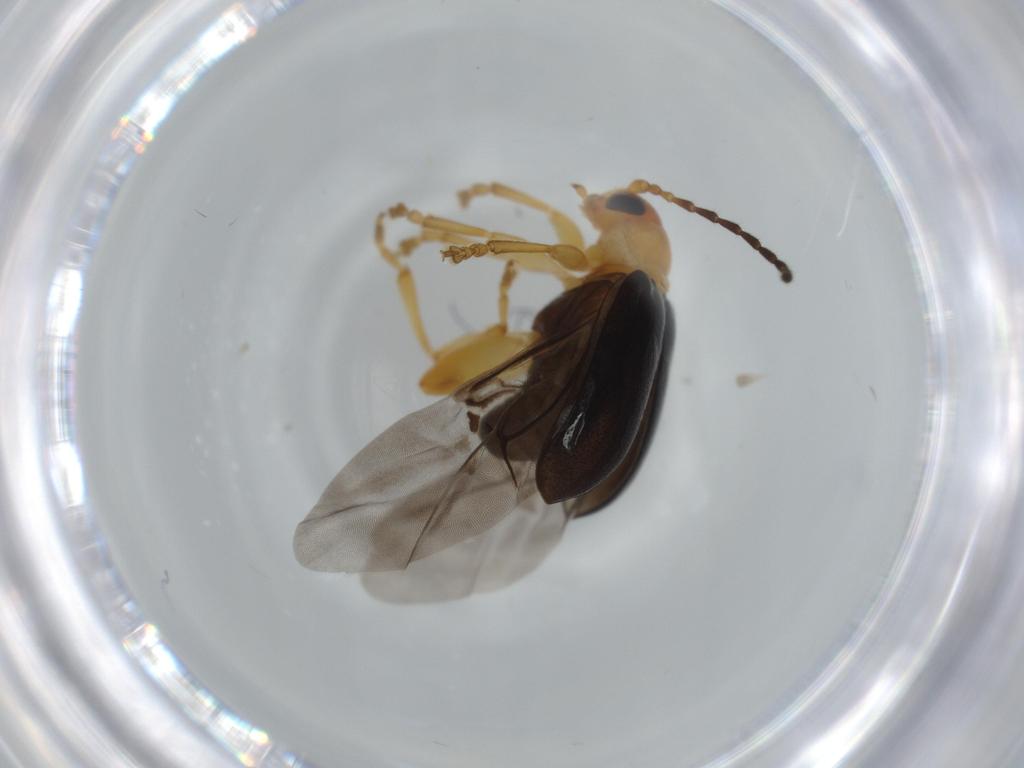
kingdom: Animalia
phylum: Arthropoda
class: Insecta
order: Coleoptera
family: Chrysomelidae
